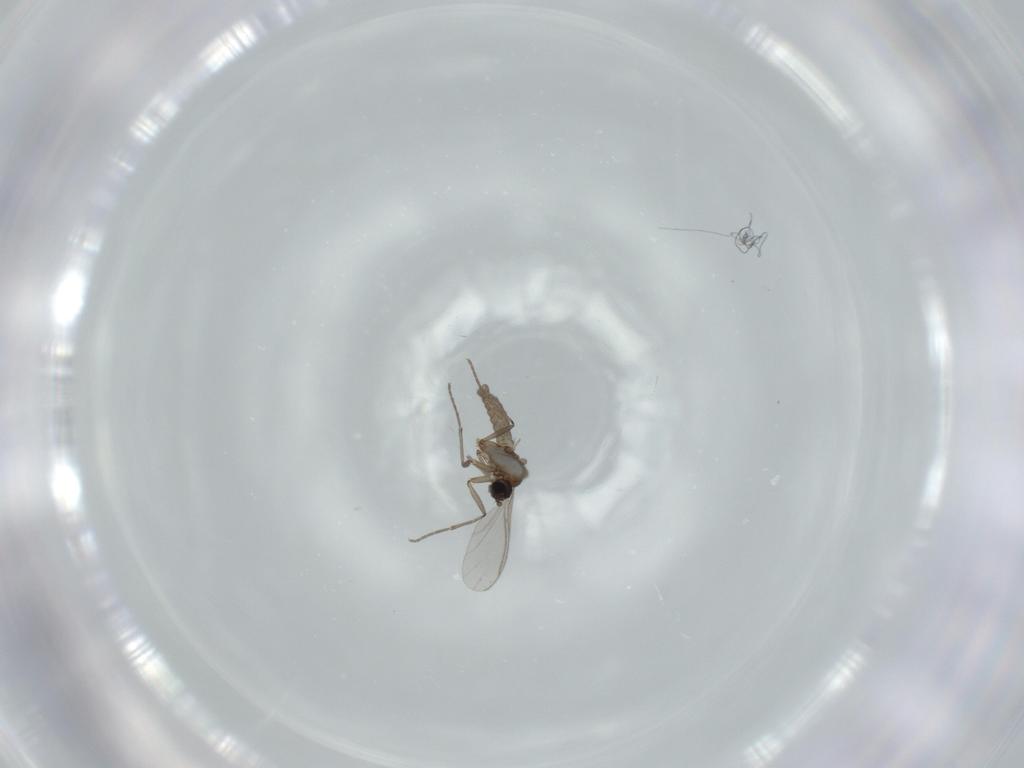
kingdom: Animalia
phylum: Arthropoda
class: Insecta
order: Diptera
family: Sciaridae
